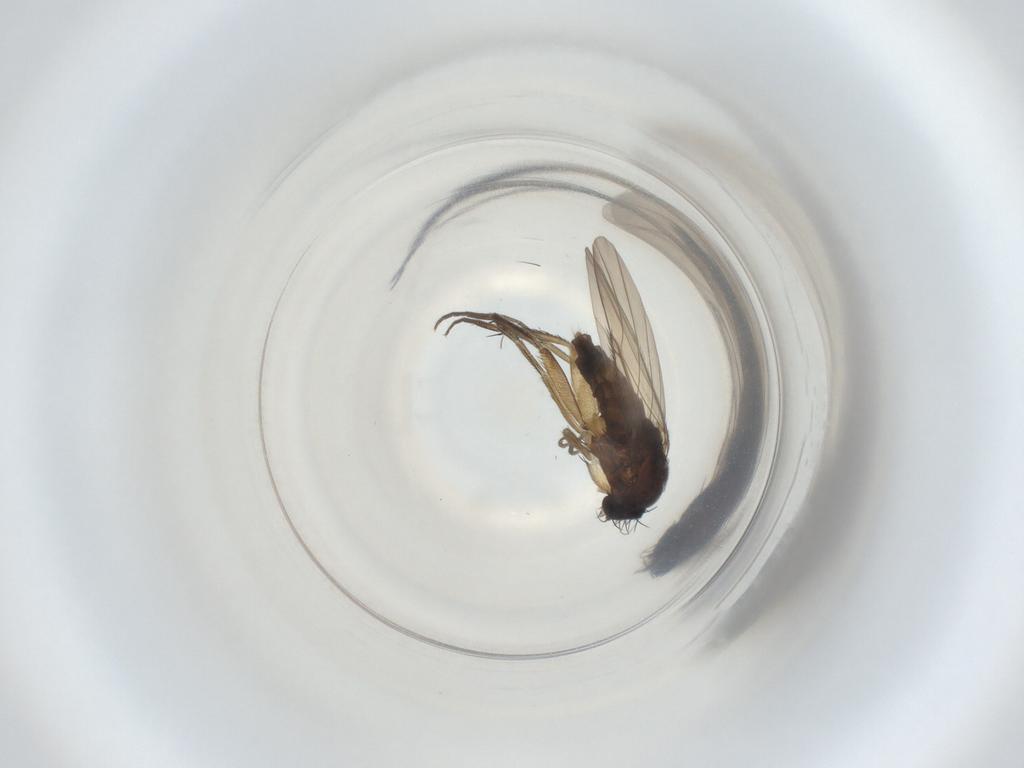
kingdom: Animalia
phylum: Arthropoda
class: Insecta
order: Diptera
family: Phoridae
